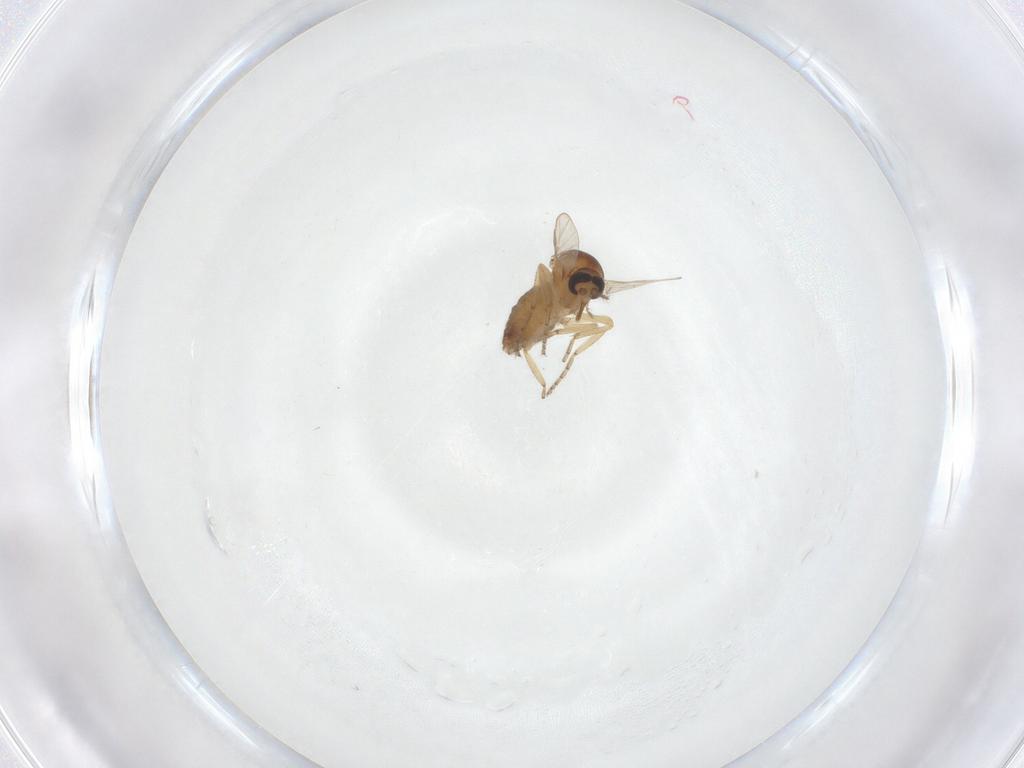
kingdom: Animalia
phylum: Arthropoda
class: Insecta
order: Diptera
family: Ceratopogonidae
